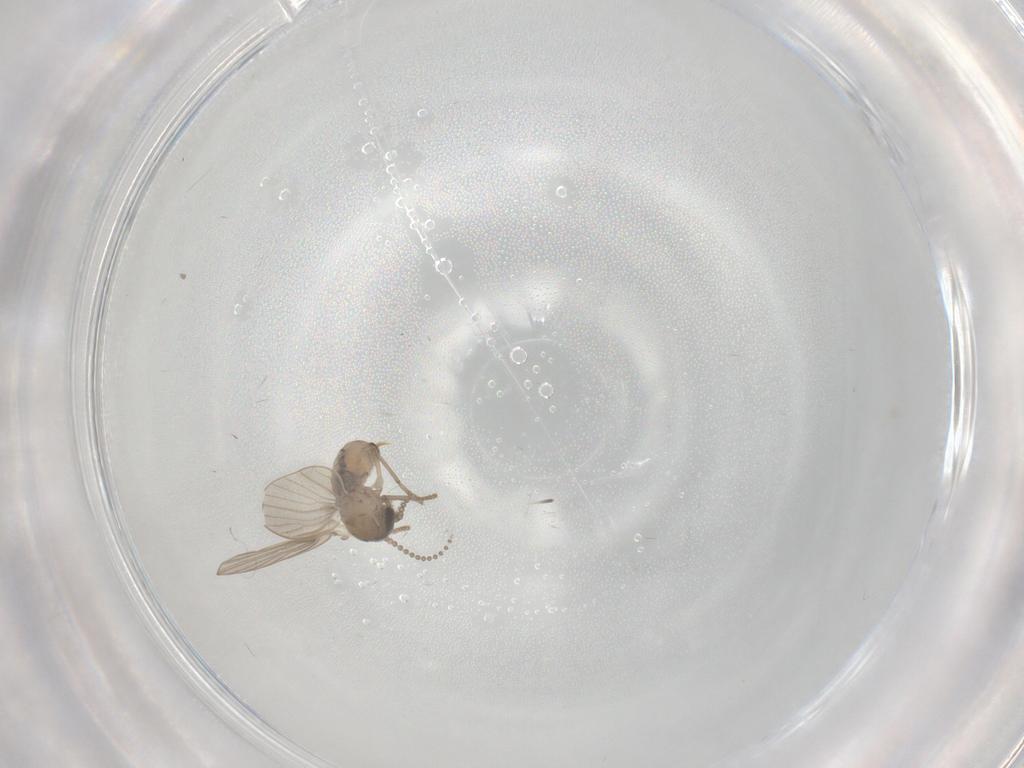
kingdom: Animalia
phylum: Arthropoda
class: Insecta
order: Diptera
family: Psychodidae
